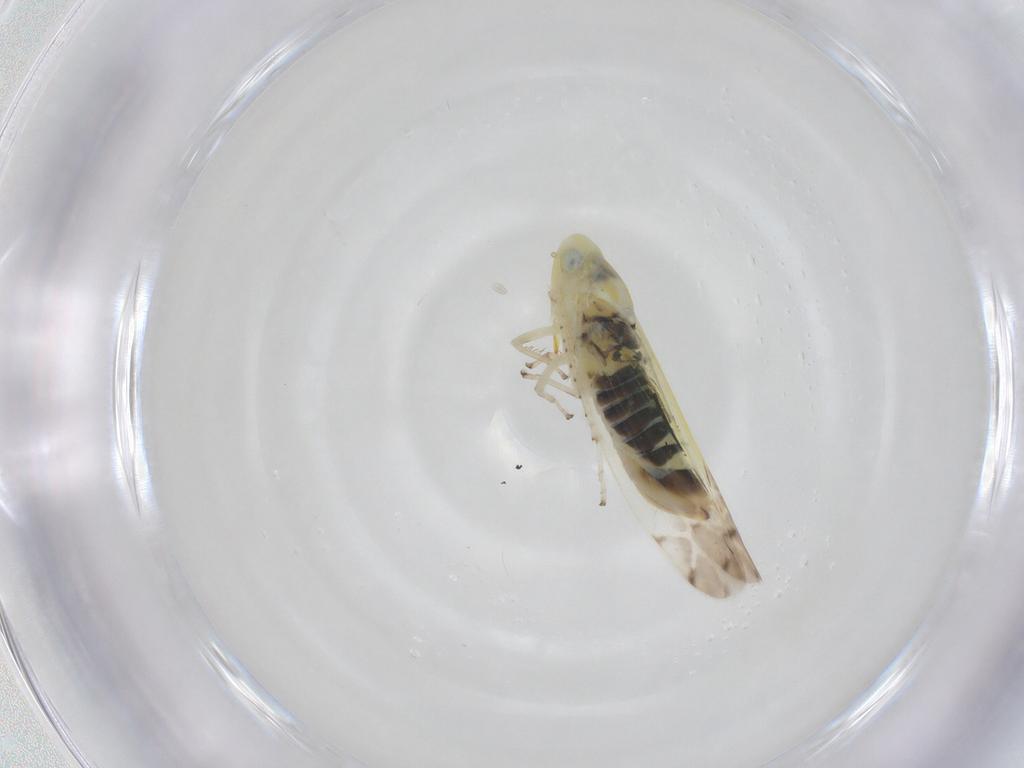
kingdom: Animalia
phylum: Arthropoda
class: Insecta
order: Hemiptera
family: Cicadellidae
